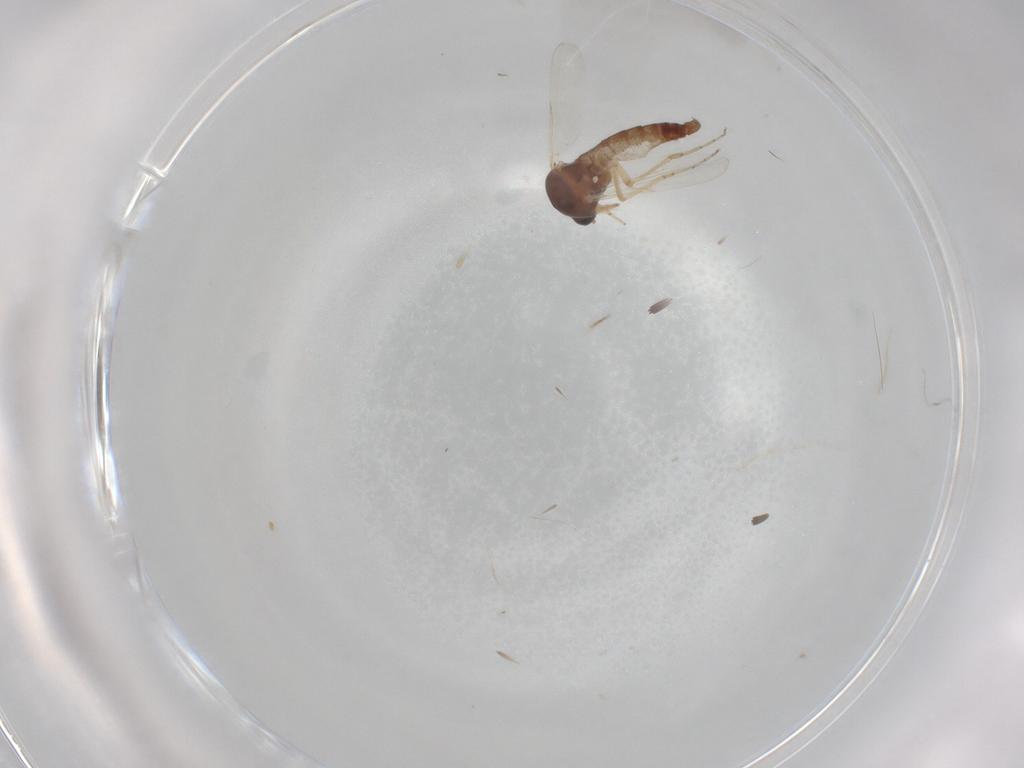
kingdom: Animalia
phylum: Arthropoda
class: Insecta
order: Diptera
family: Ceratopogonidae
